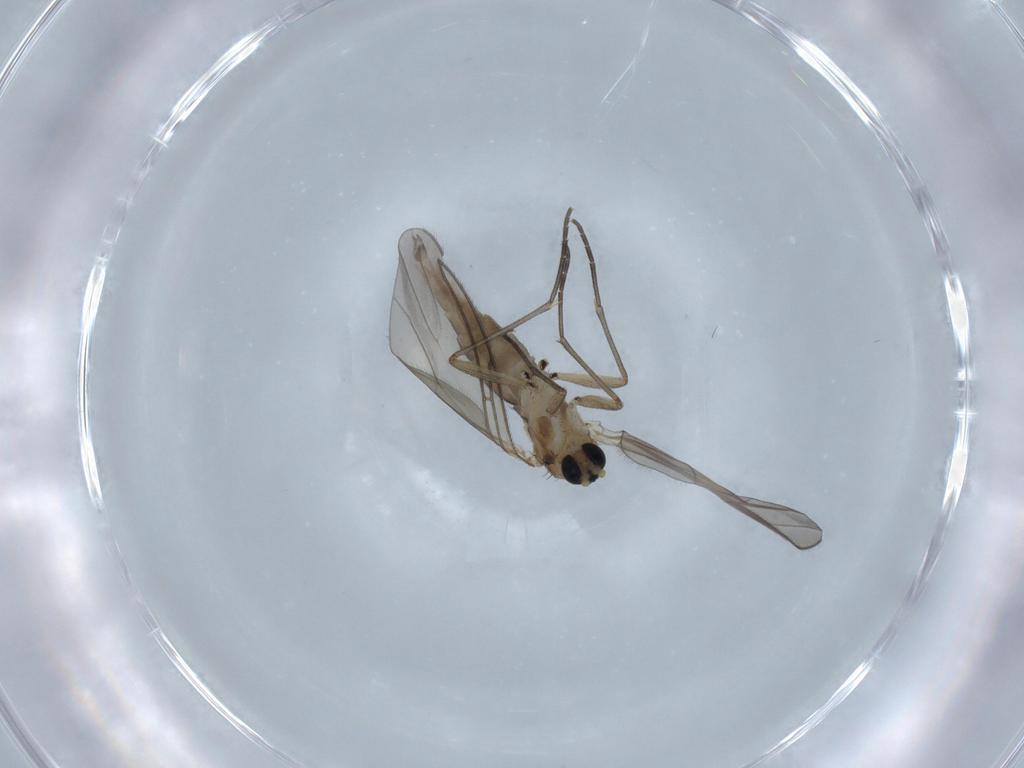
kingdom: Animalia
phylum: Arthropoda
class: Insecta
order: Diptera
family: Sciaridae
